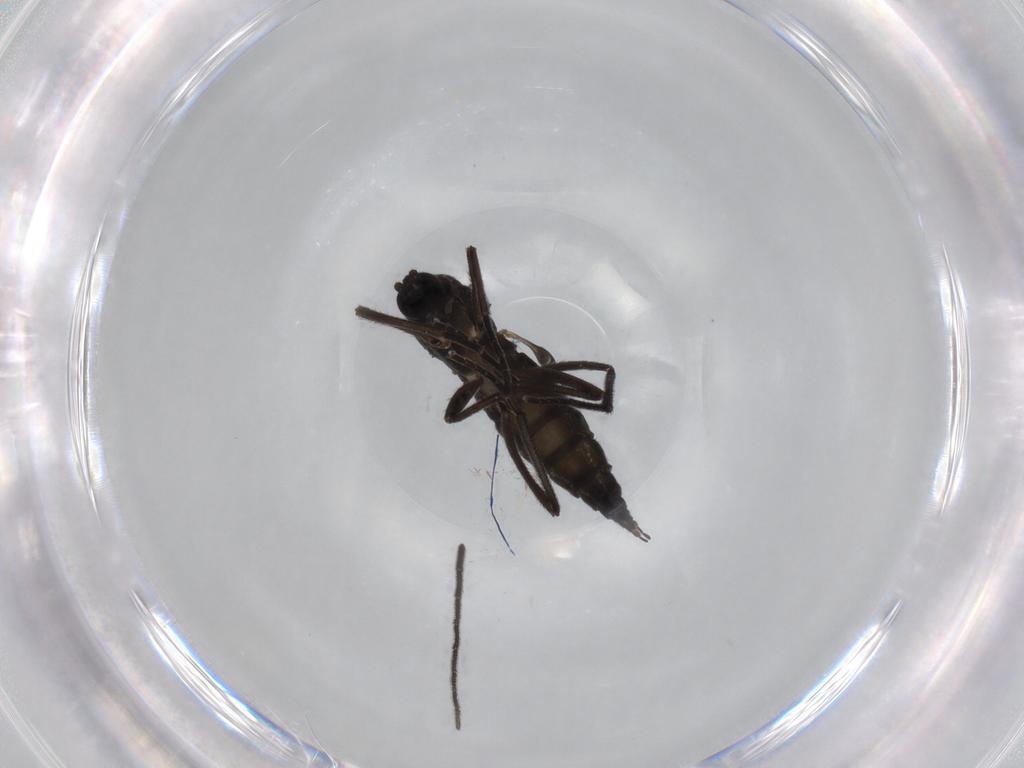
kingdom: Animalia
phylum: Arthropoda
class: Insecta
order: Diptera
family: Sciaridae
